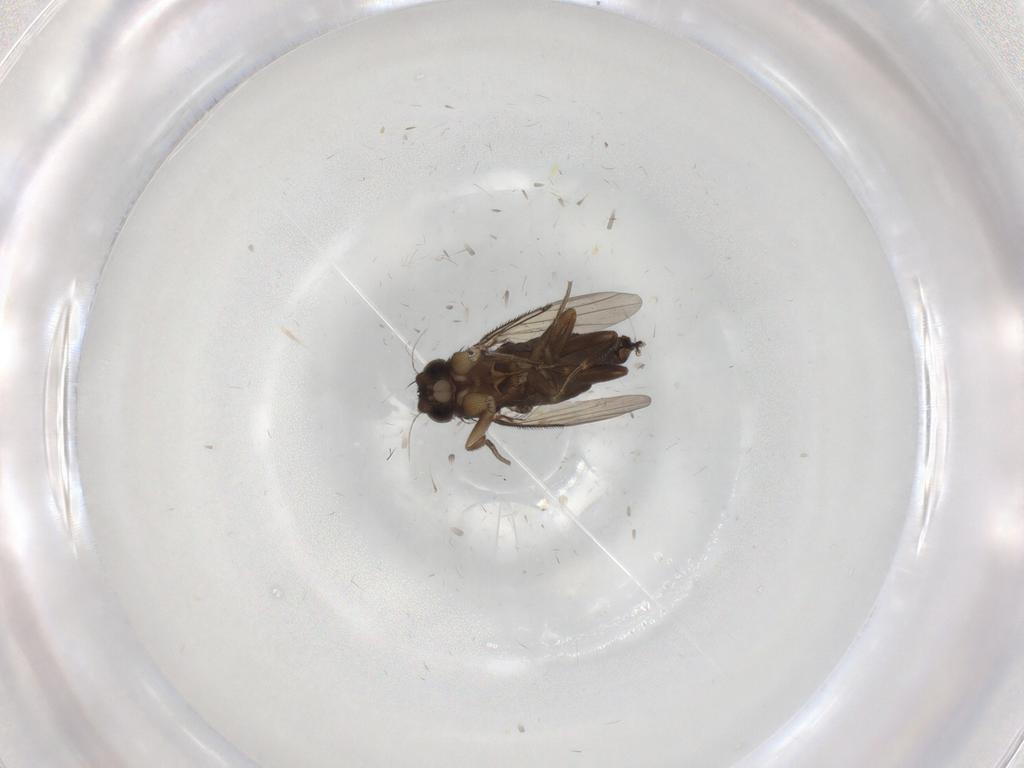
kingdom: Animalia
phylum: Arthropoda
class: Insecta
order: Diptera
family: Phoridae
